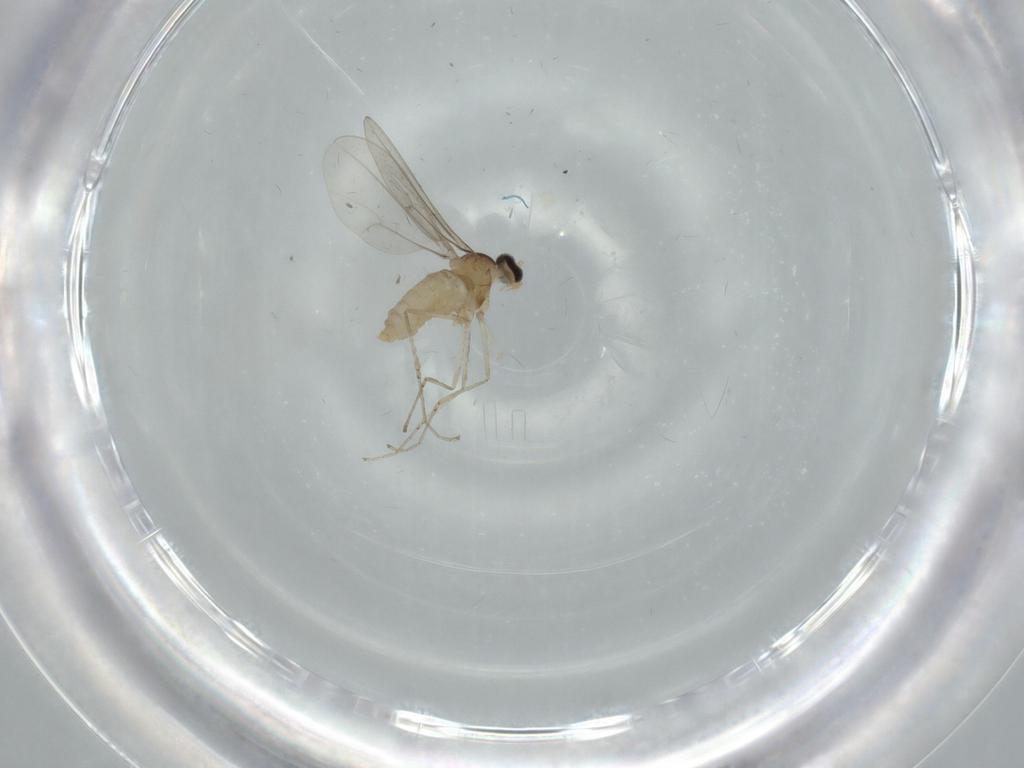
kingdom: Animalia
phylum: Arthropoda
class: Insecta
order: Diptera
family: Cecidomyiidae
